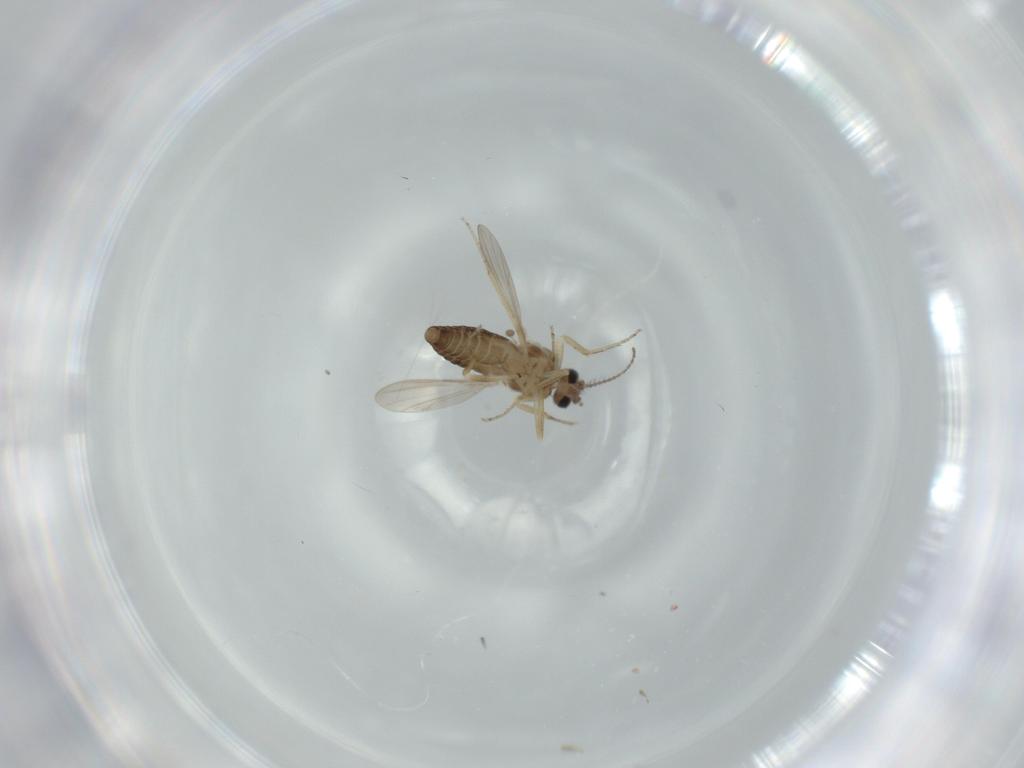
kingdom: Animalia
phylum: Arthropoda
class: Insecta
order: Diptera
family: Ceratopogonidae
